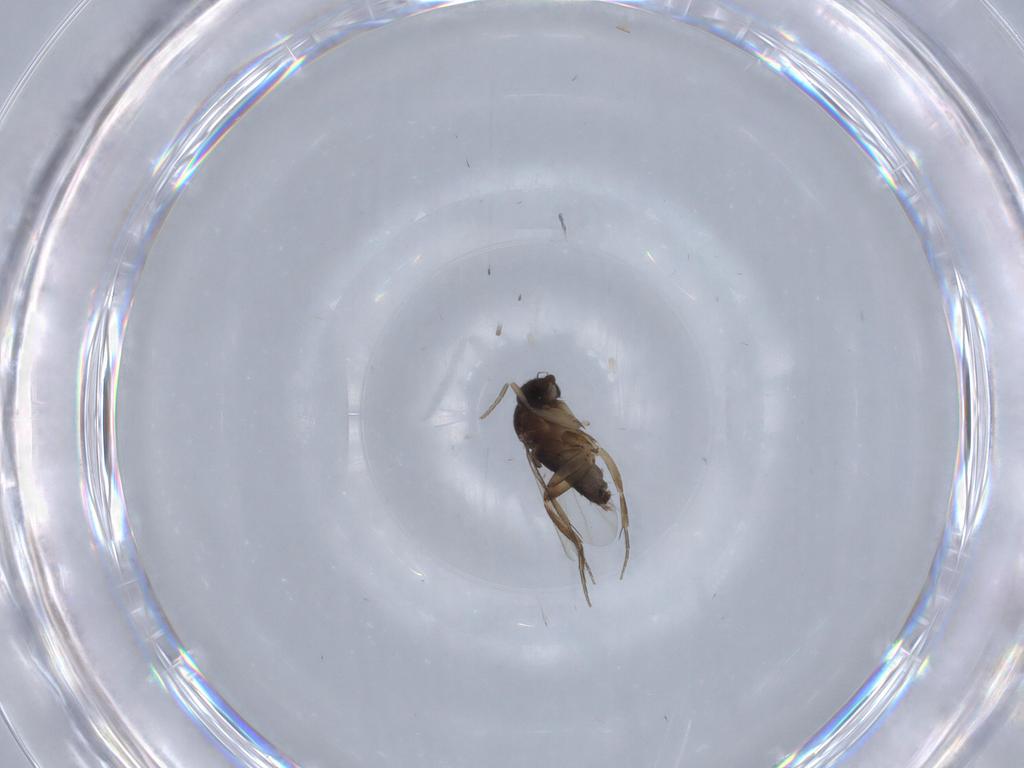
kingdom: Animalia
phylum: Arthropoda
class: Insecta
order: Diptera
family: Phoridae
